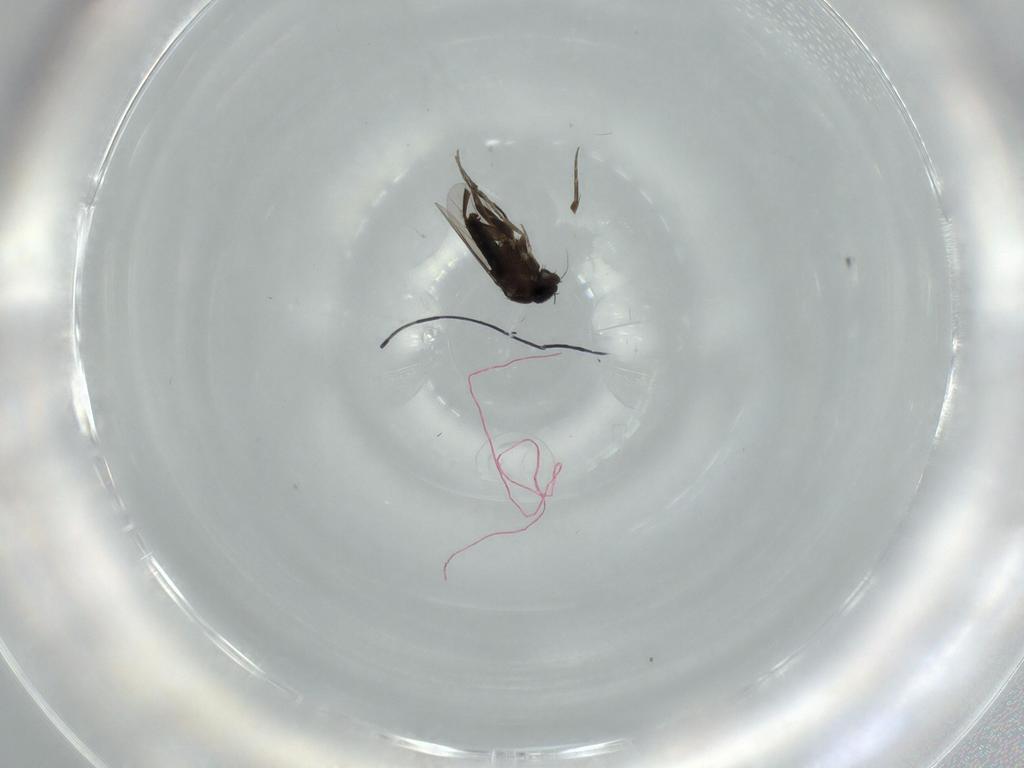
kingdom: Animalia
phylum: Arthropoda
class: Insecta
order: Diptera
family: Phoridae
